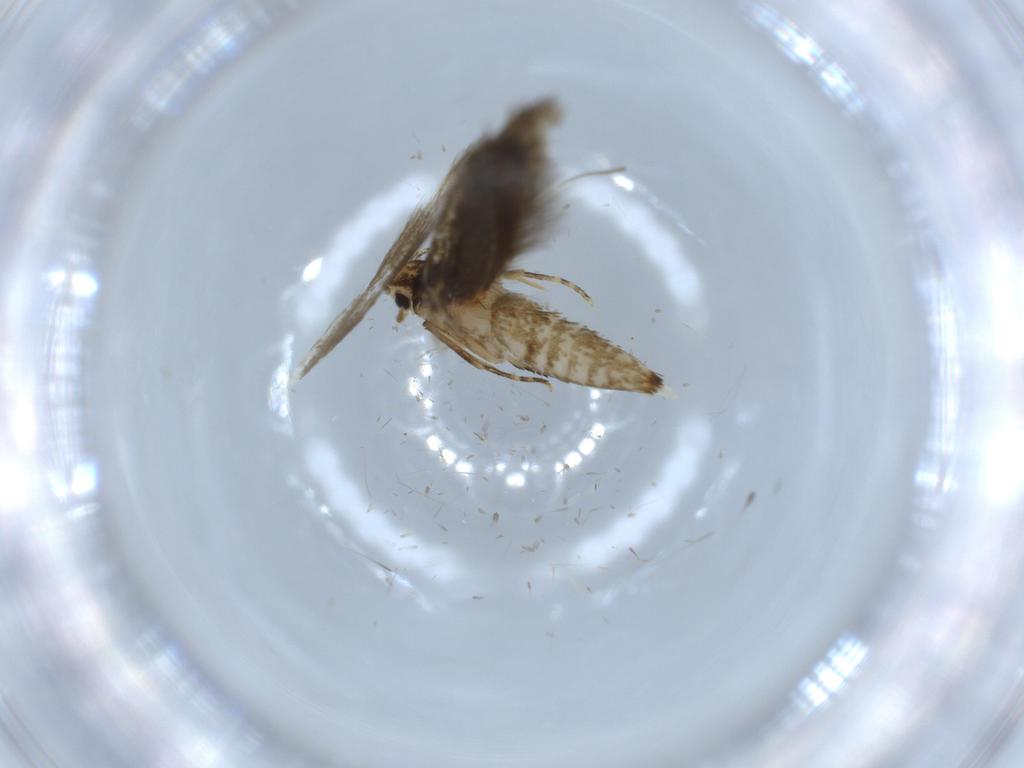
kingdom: Animalia
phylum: Arthropoda
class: Insecta
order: Lepidoptera
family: Tineidae
